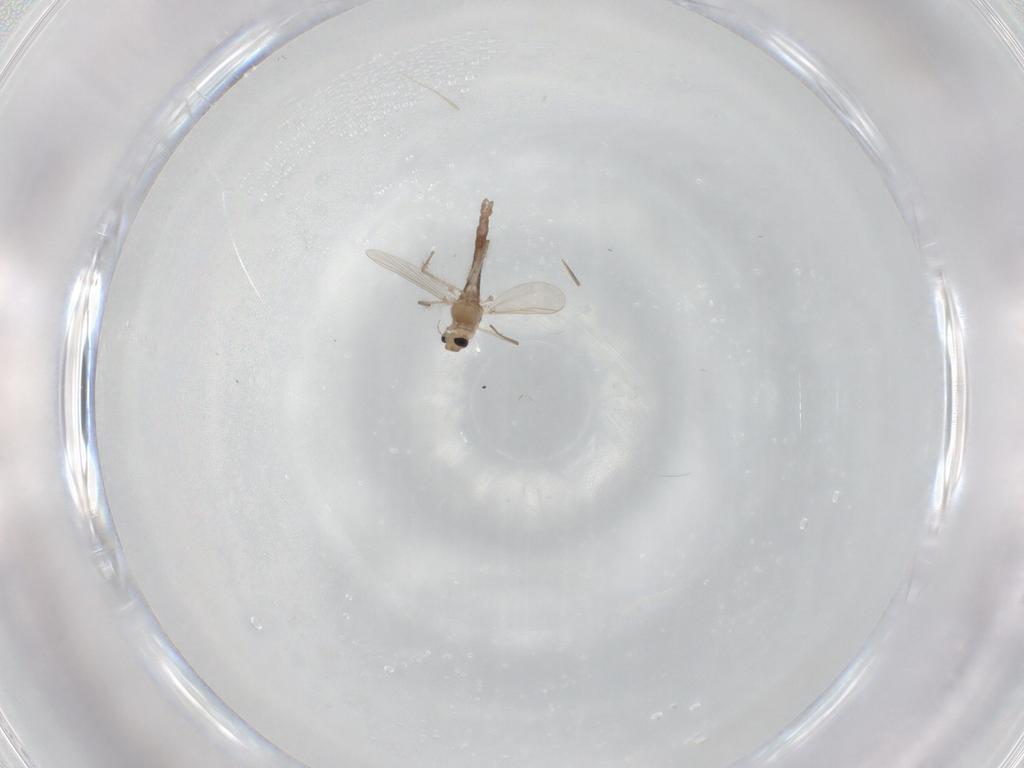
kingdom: Animalia
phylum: Arthropoda
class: Insecta
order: Diptera
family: Chironomidae
